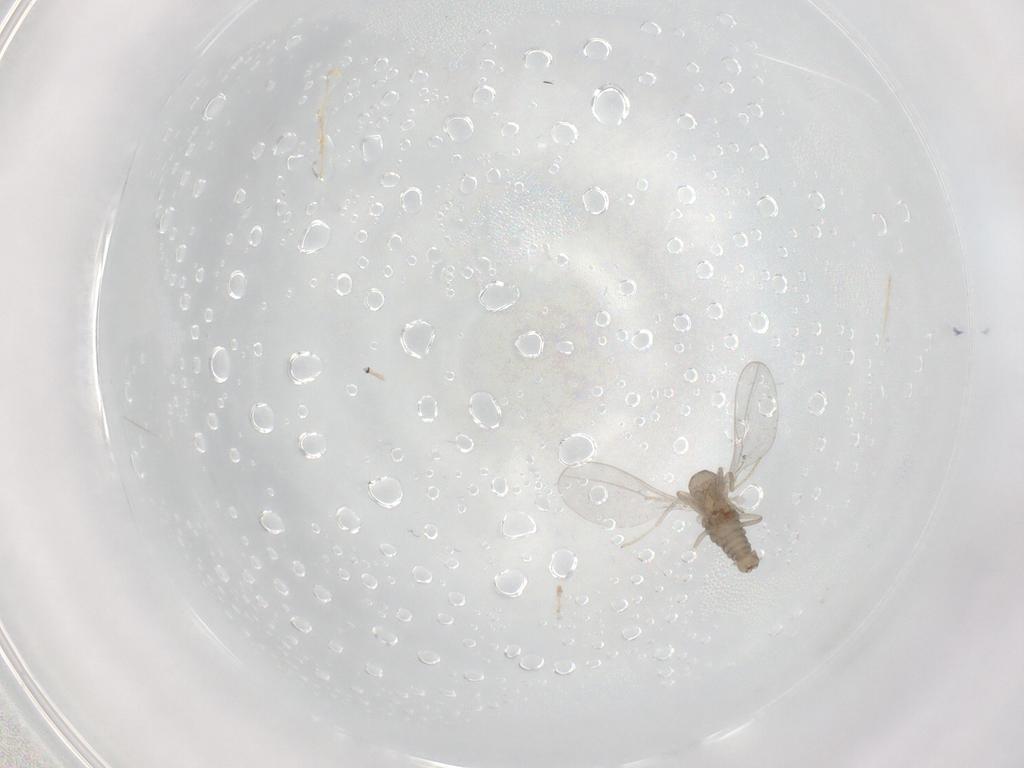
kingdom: Animalia
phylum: Arthropoda
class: Insecta
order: Diptera
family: Cecidomyiidae
